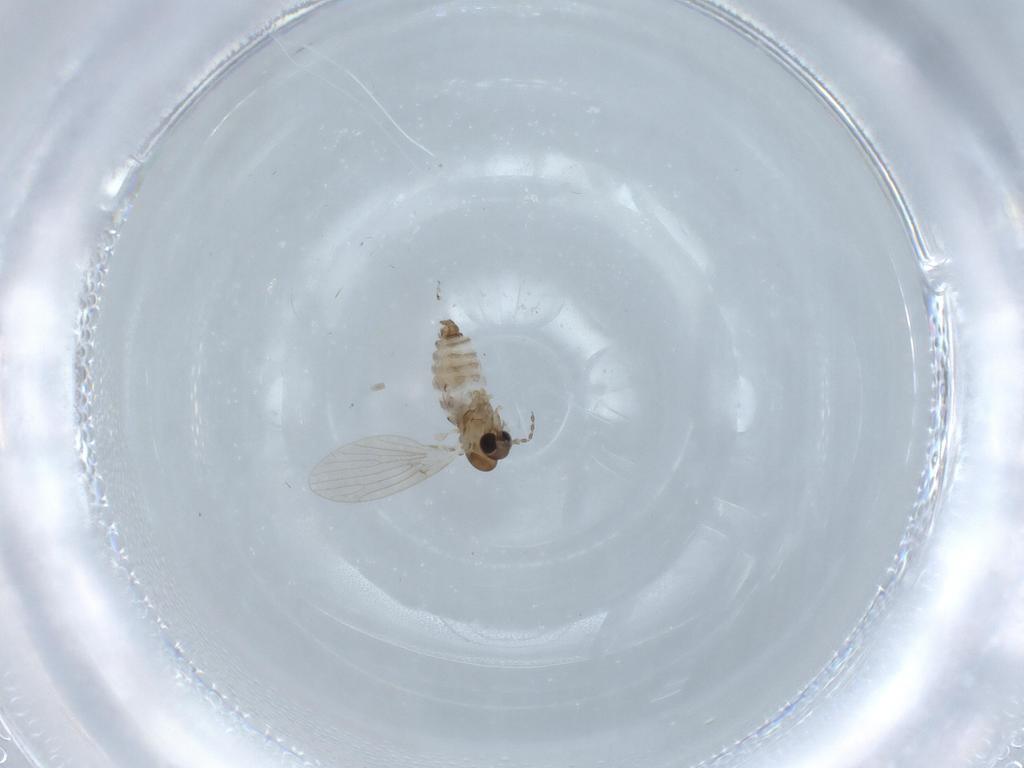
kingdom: Animalia
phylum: Arthropoda
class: Insecta
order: Diptera
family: Psychodidae
